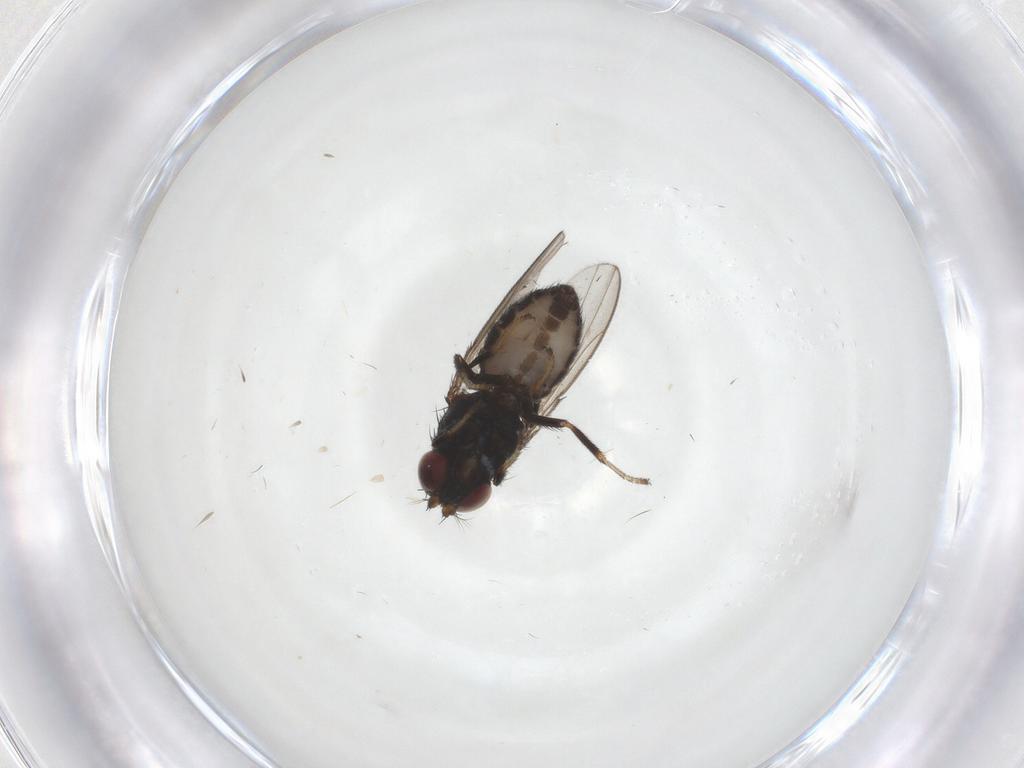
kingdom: Animalia
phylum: Arthropoda
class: Insecta
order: Diptera
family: Ephydridae
